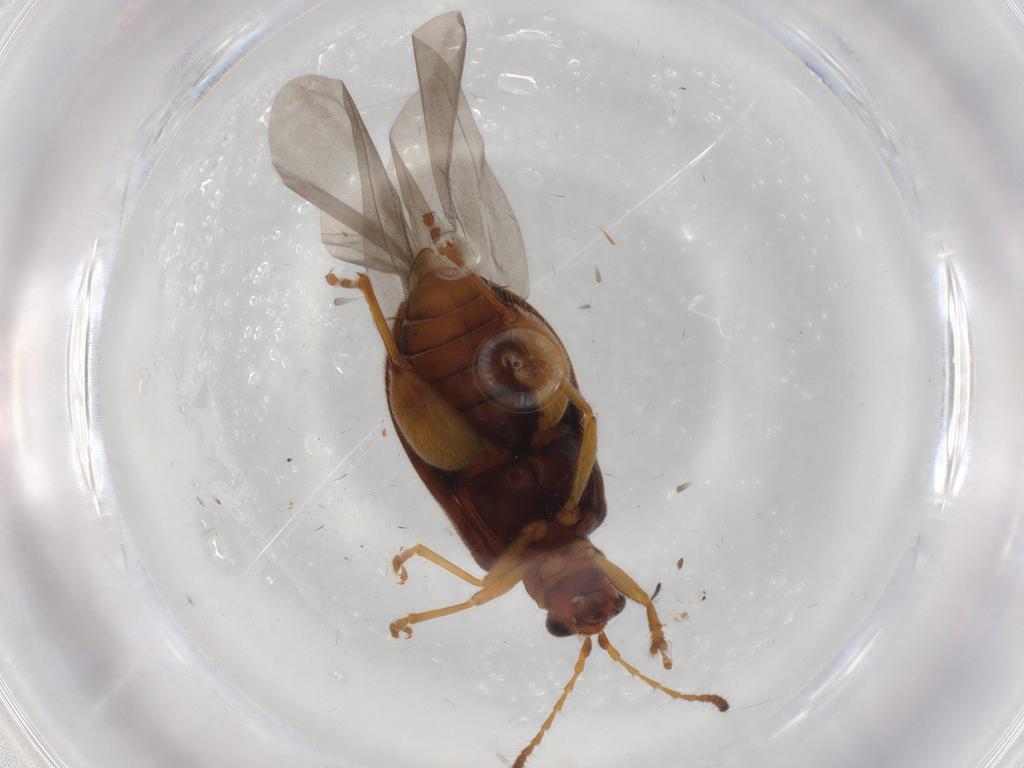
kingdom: Animalia
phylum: Arthropoda
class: Insecta
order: Coleoptera
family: Chrysomelidae
